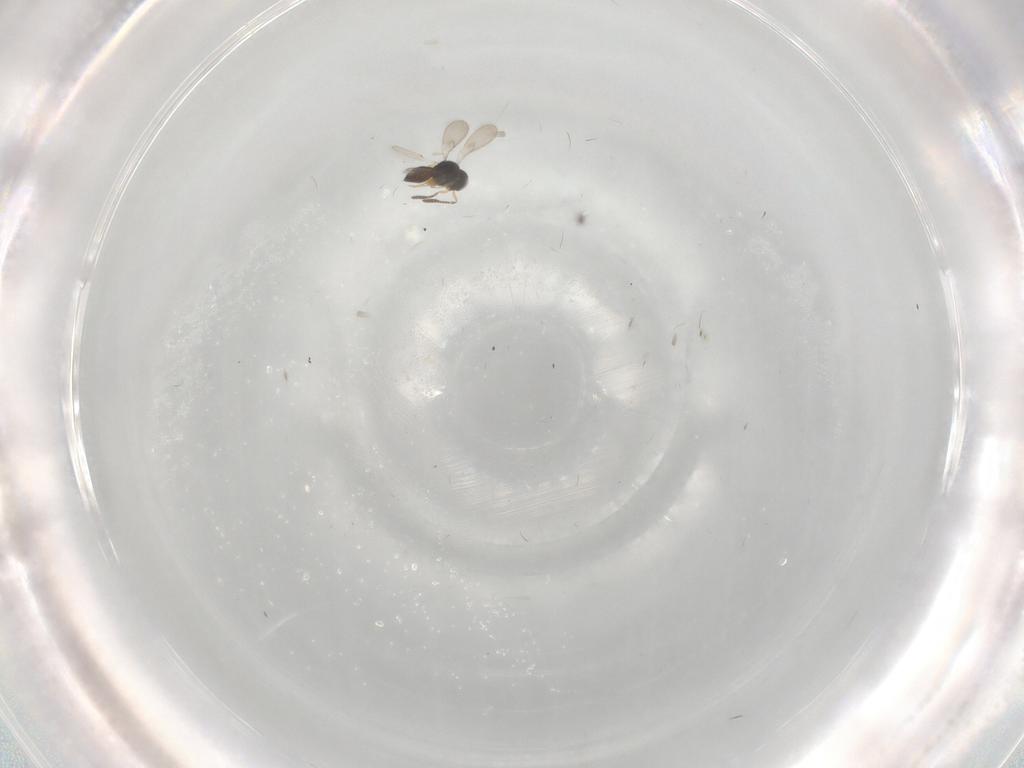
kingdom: Animalia
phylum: Arthropoda
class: Insecta
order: Hymenoptera
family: Scelionidae
